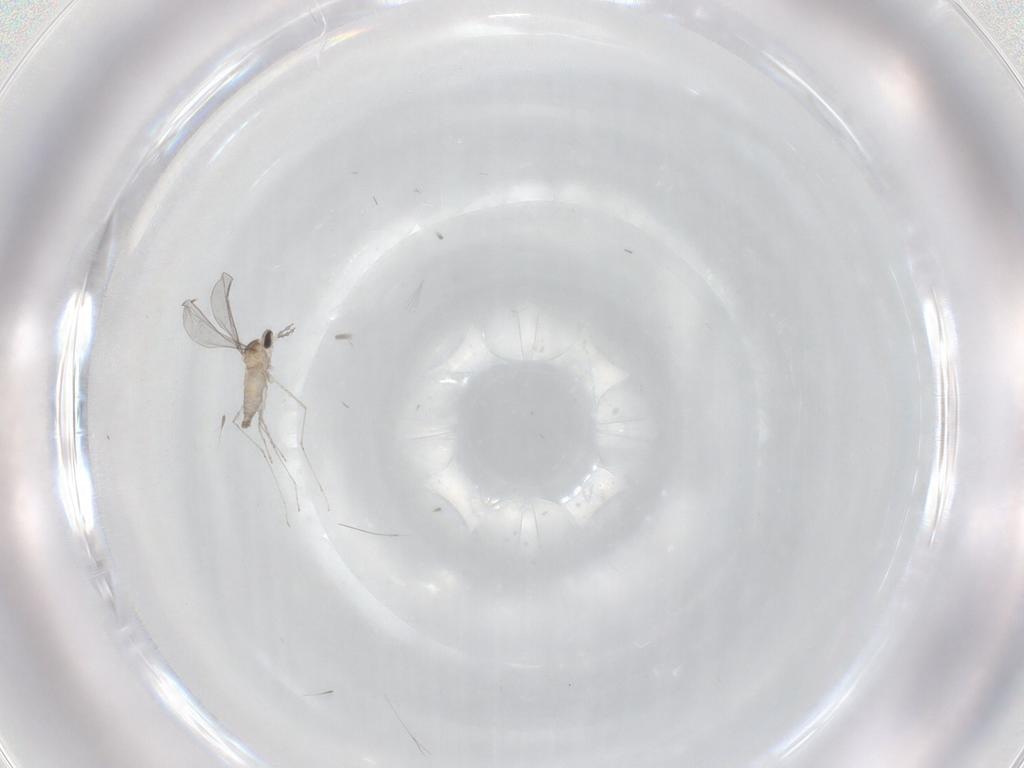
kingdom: Animalia
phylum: Arthropoda
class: Insecta
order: Diptera
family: Cecidomyiidae
